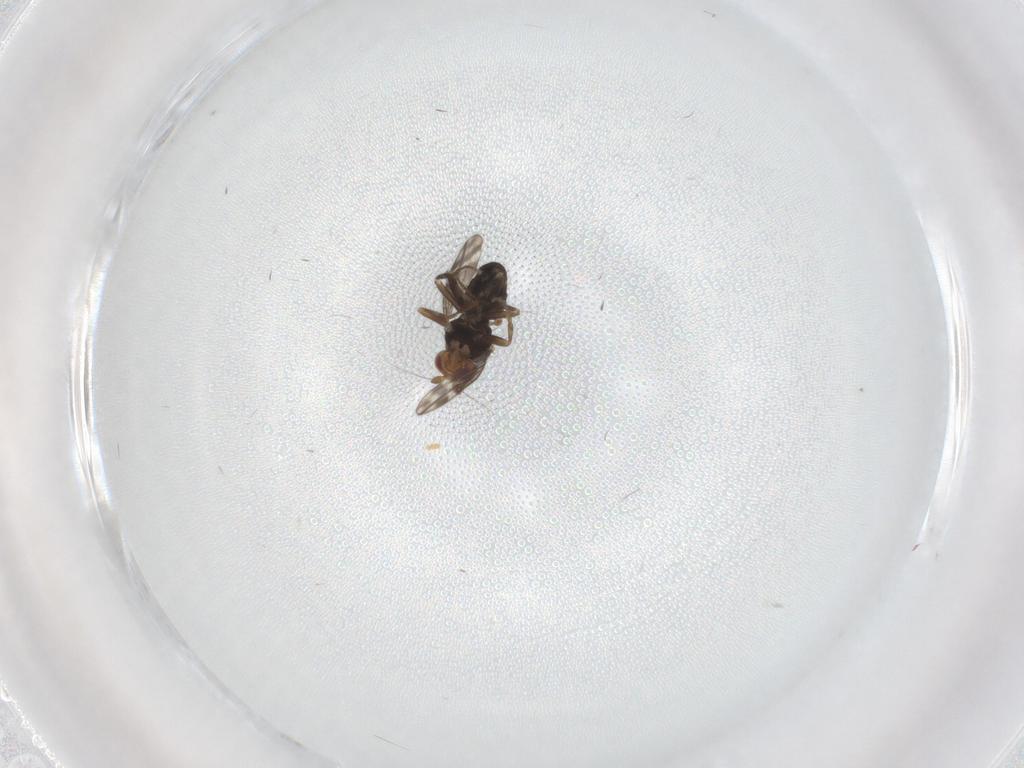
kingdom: Animalia
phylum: Arthropoda
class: Insecta
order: Diptera
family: Sphaeroceridae
